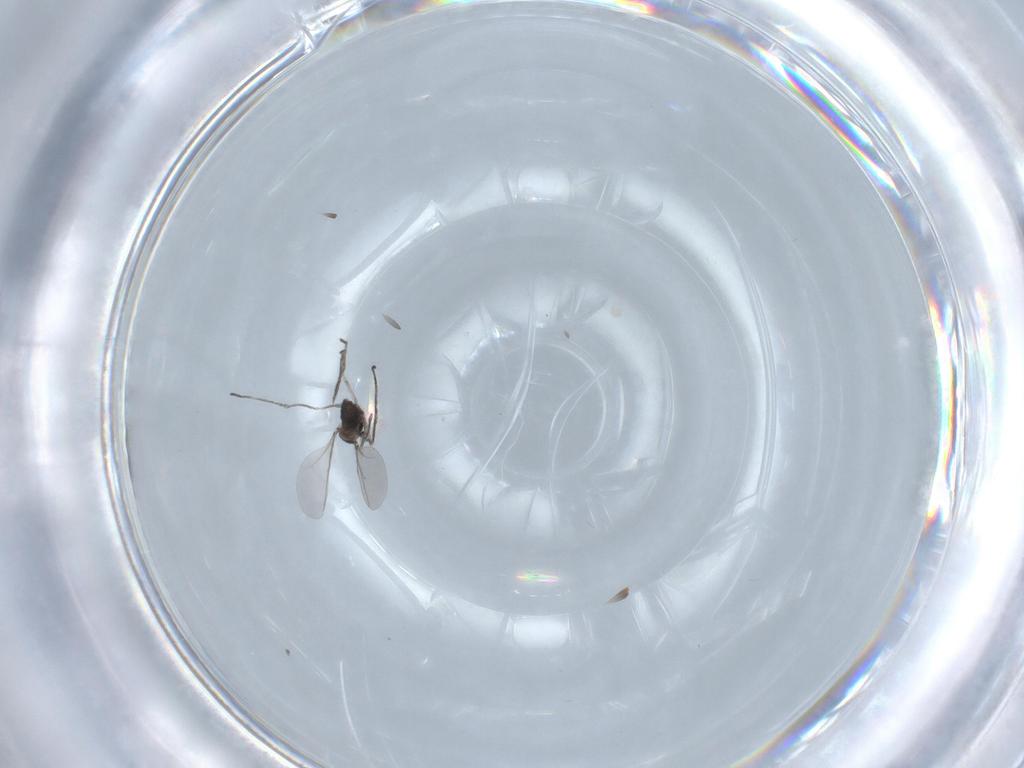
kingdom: Animalia
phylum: Arthropoda
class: Insecta
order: Diptera
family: Cecidomyiidae
